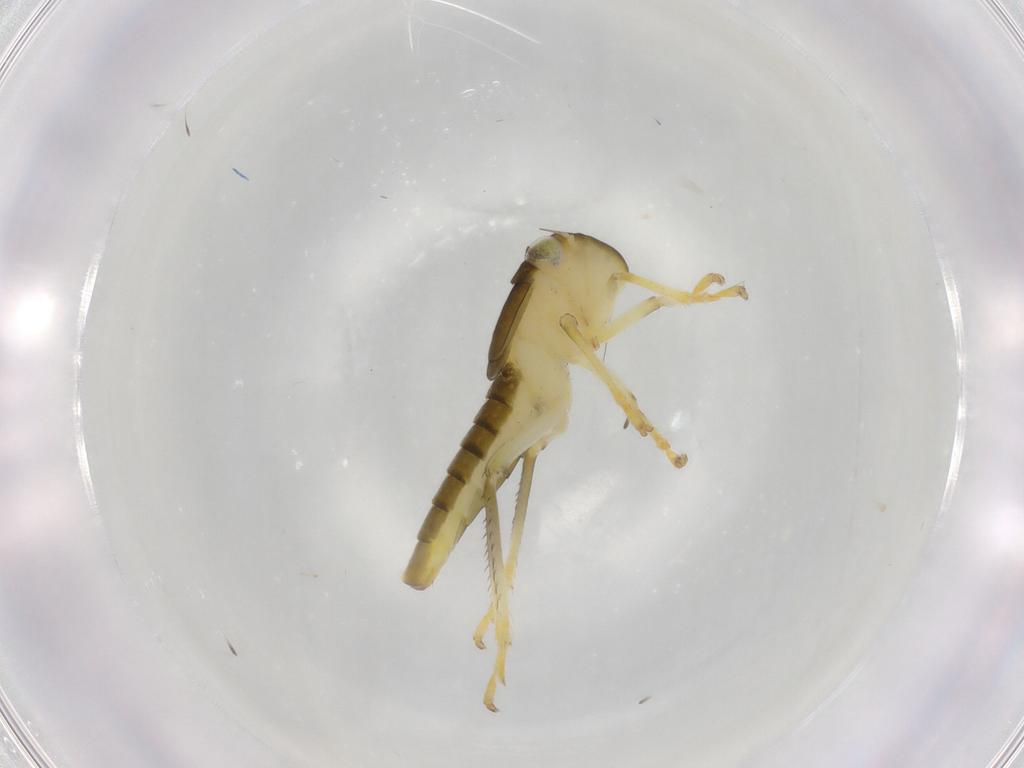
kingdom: Animalia
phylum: Arthropoda
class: Insecta
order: Hemiptera
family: Cicadellidae
